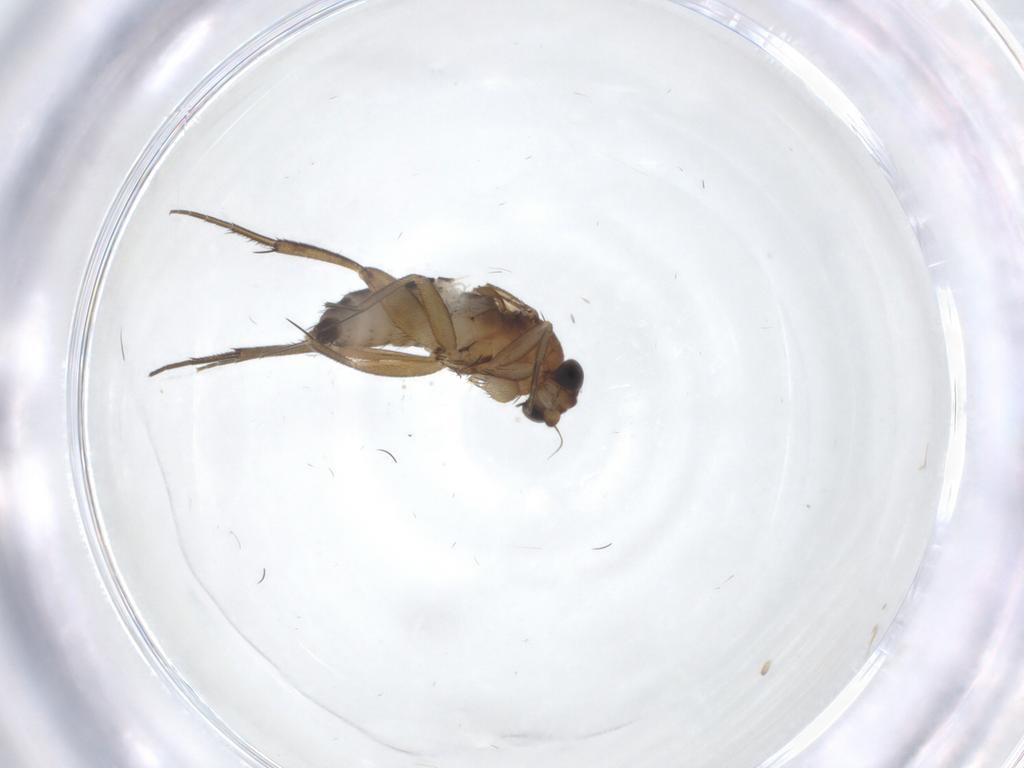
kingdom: Animalia
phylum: Arthropoda
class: Insecta
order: Diptera
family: Phoridae
